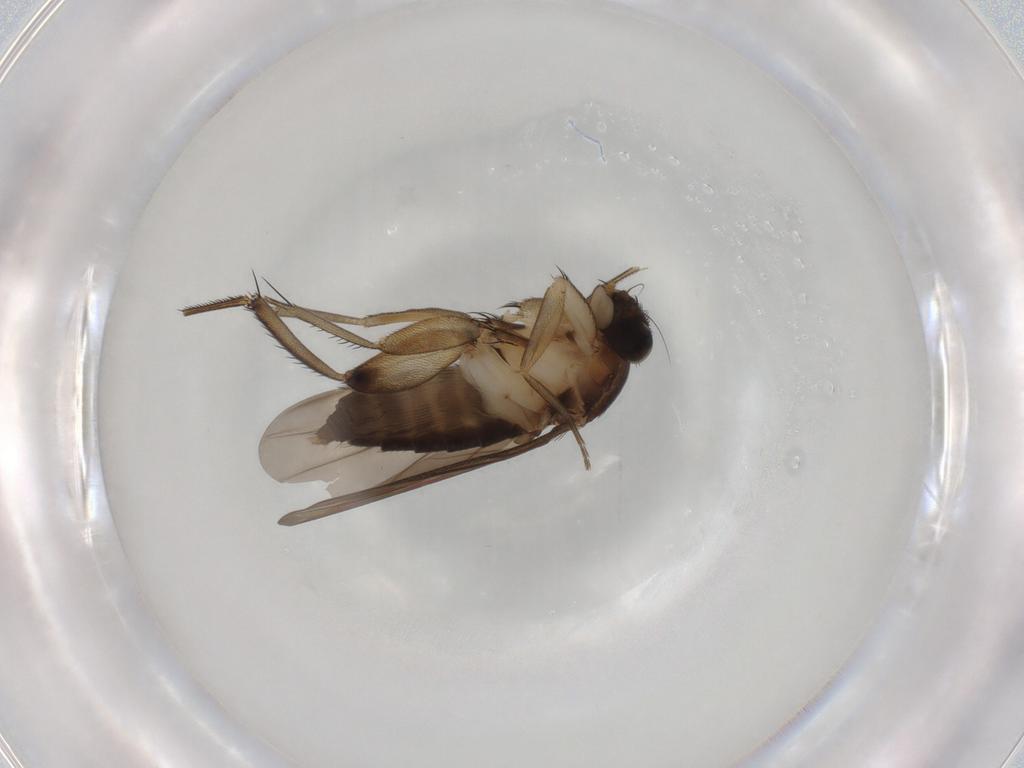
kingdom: Animalia
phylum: Arthropoda
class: Insecta
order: Diptera
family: Phoridae
